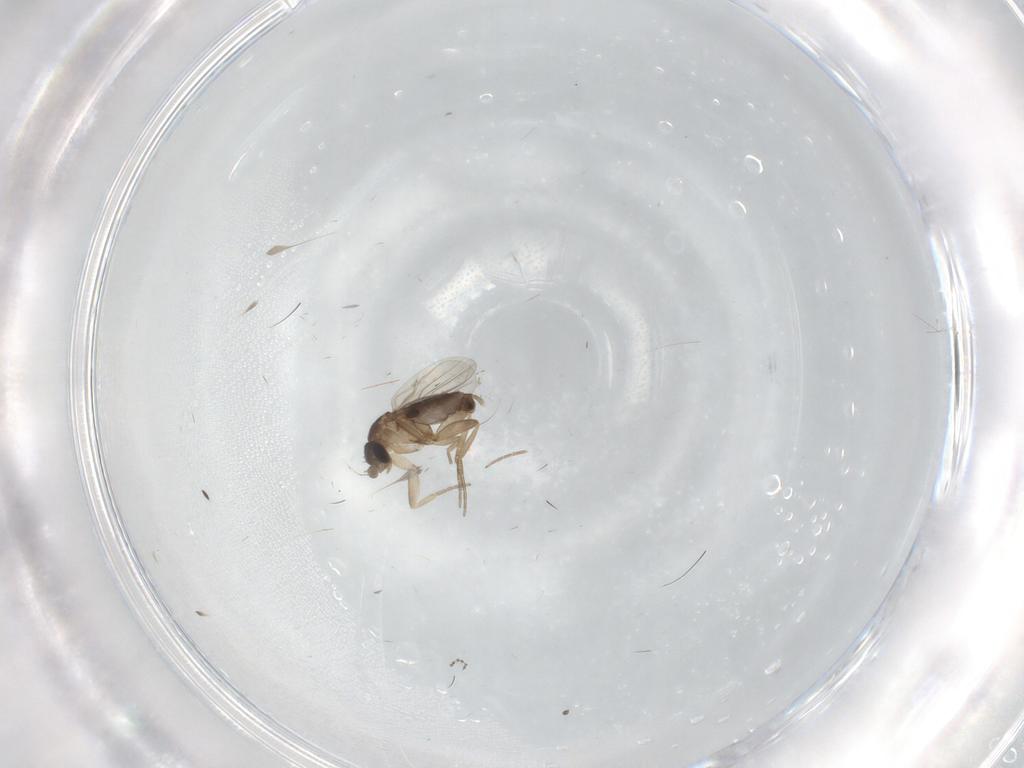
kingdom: Animalia
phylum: Arthropoda
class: Insecta
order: Diptera
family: Phoridae
